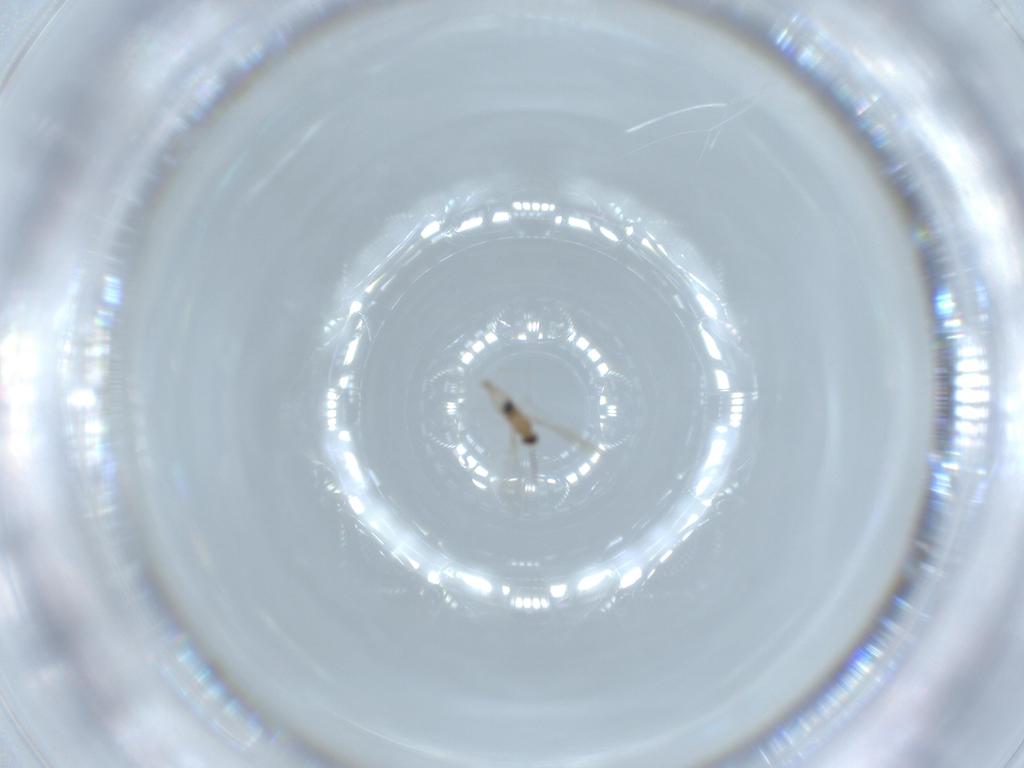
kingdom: Animalia
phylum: Arthropoda
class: Insecta
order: Diptera
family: Cecidomyiidae
